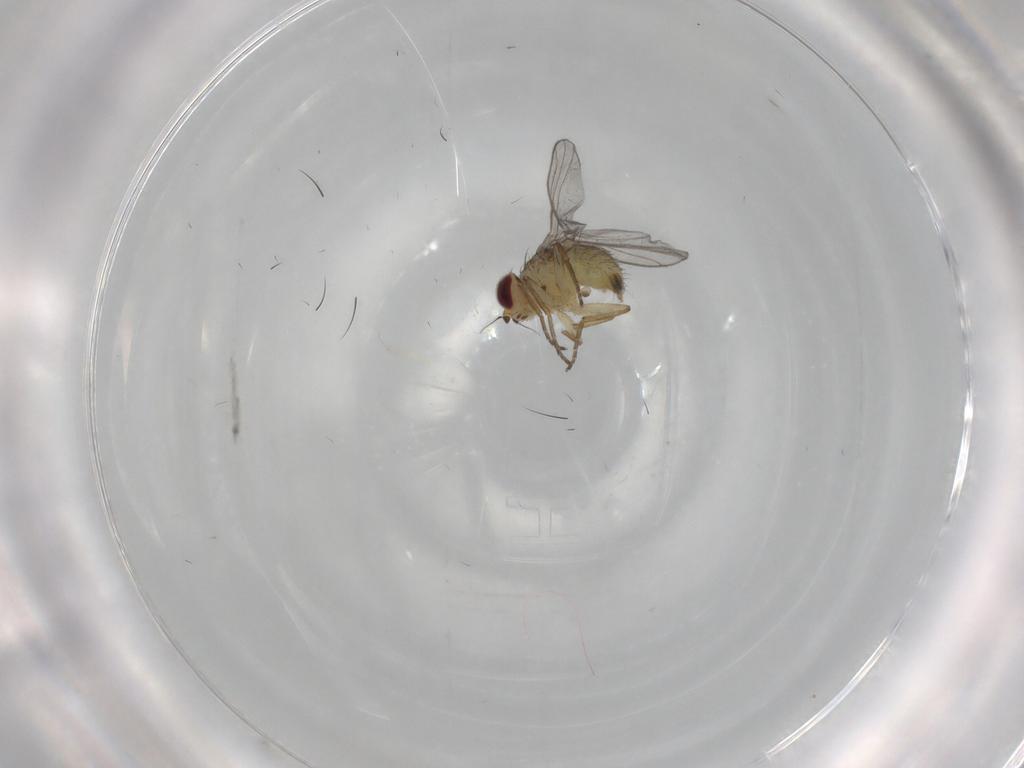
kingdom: Animalia
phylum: Arthropoda
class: Insecta
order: Diptera
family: Agromyzidae
